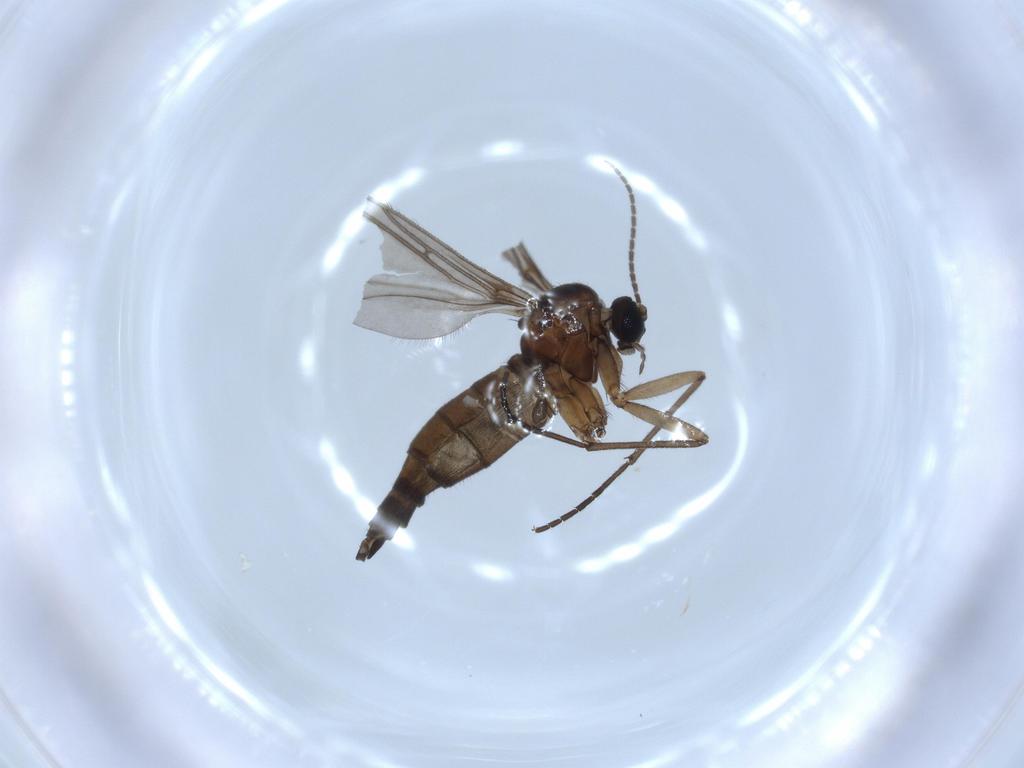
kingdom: Animalia
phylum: Arthropoda
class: Insecta
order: Diptera
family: Sciaridae
